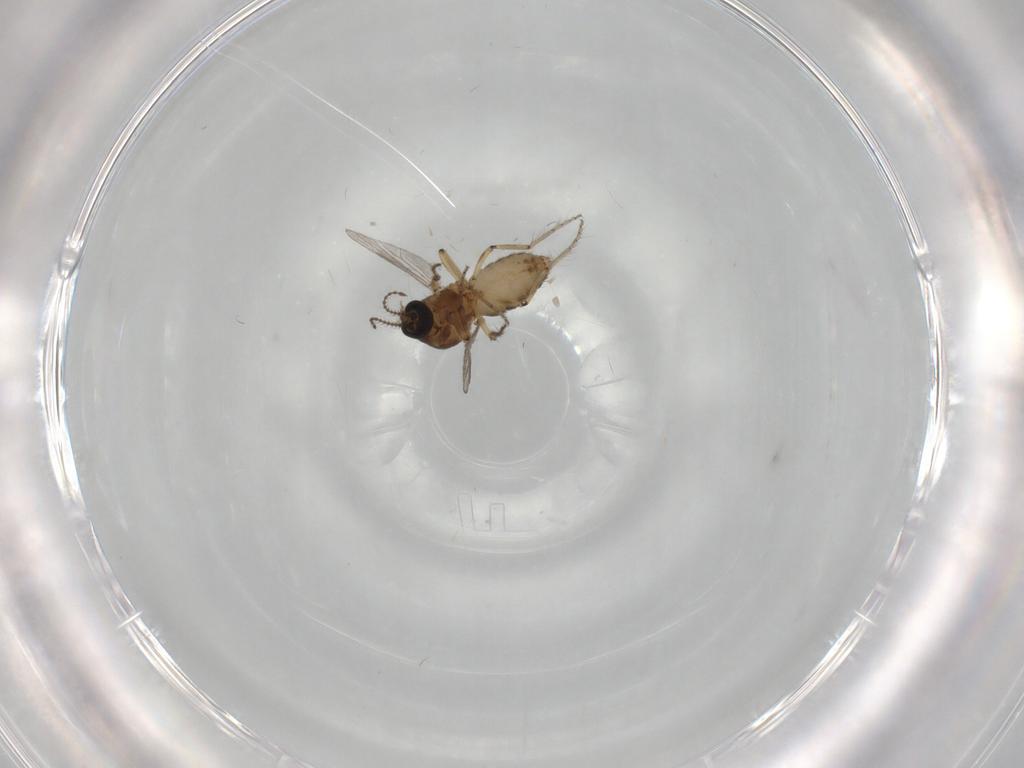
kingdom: Animalia
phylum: Arthropoda
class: Insecta
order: Diptera
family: Ceratopogonidae
